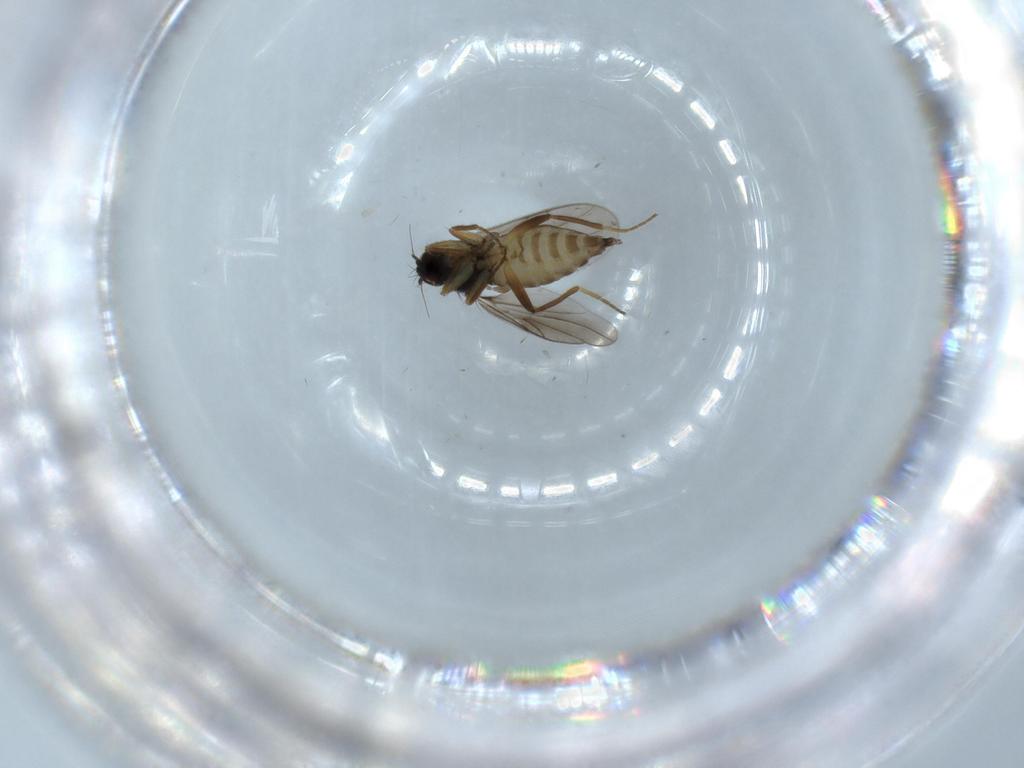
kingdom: Animalia
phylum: Arthropoda
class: Insecta
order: Diptera
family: Hybotidae
